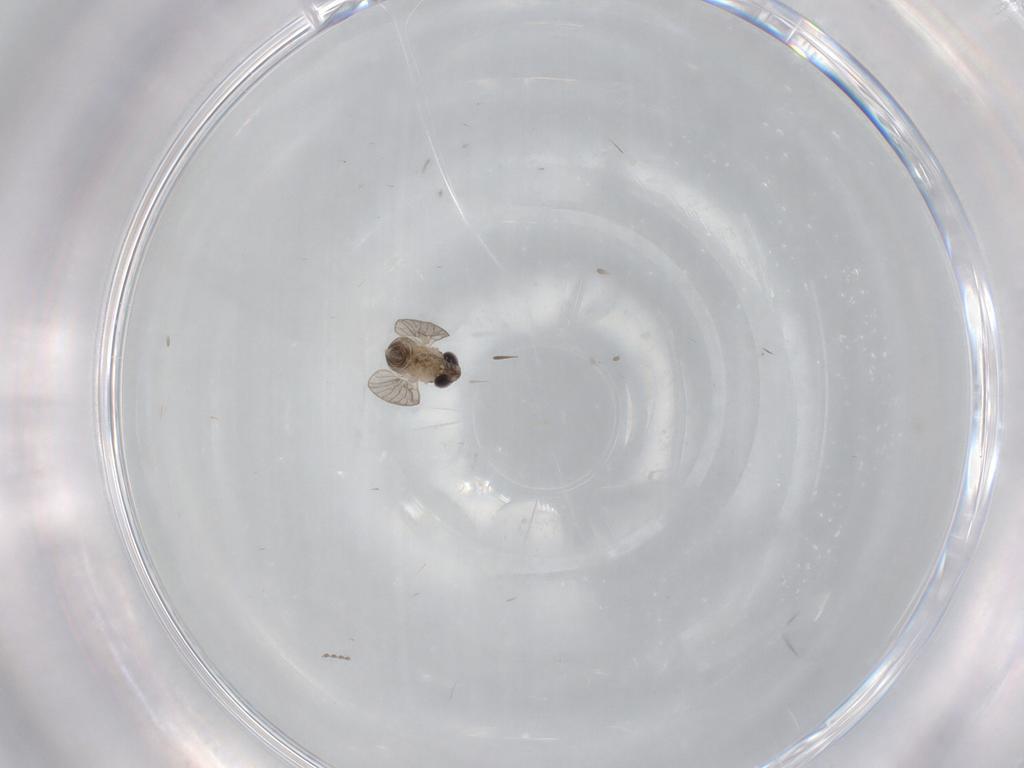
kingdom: Animalia
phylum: Arthropoda
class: Insecta
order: Diptera
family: Psychodidae
